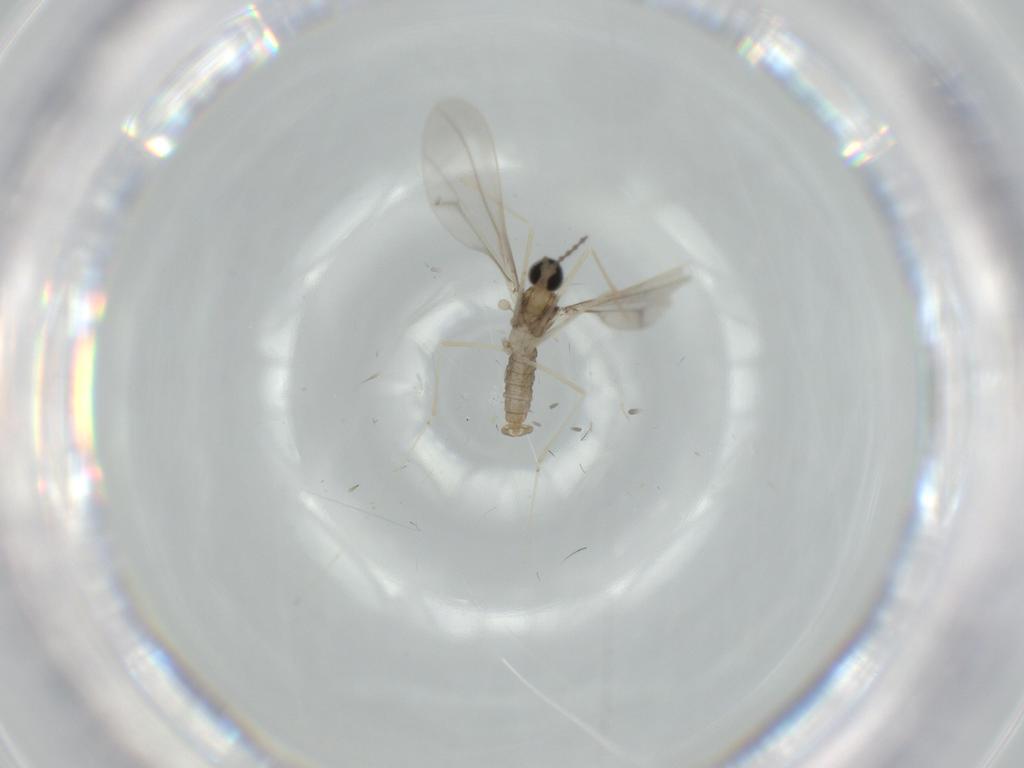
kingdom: Animalia
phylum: Arthropoda
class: Insecta
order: Diptera
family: Cecidomyiidae
